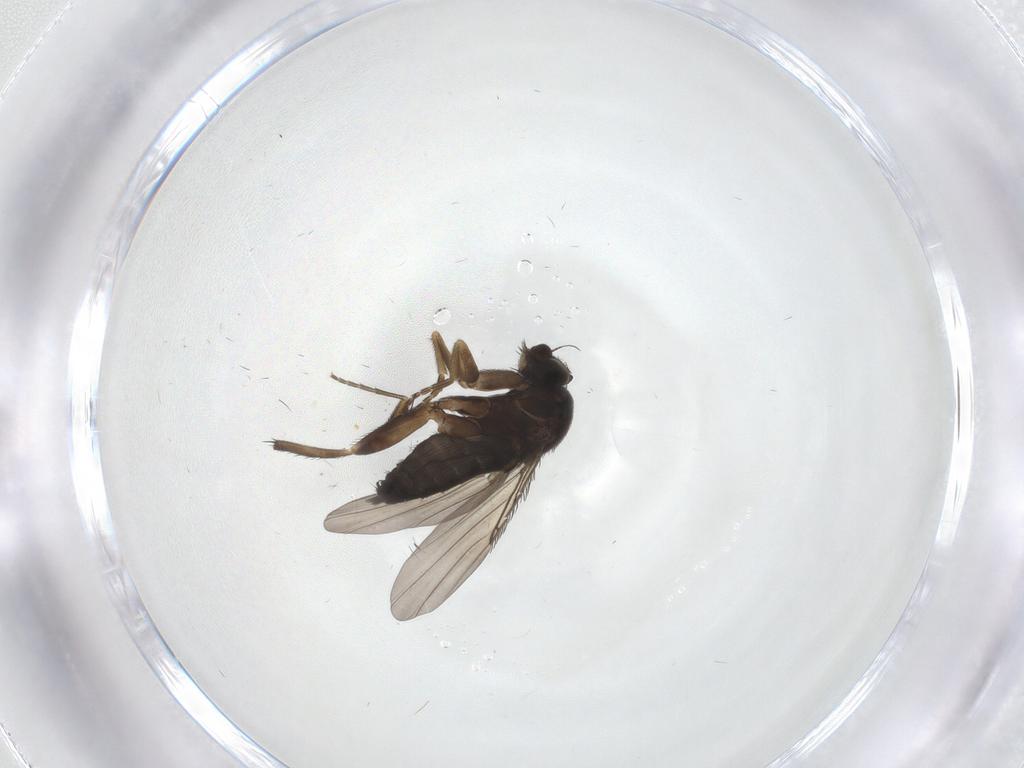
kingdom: Animalia
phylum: Arthropoda
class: Insecta
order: Diptera
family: Phoridae
